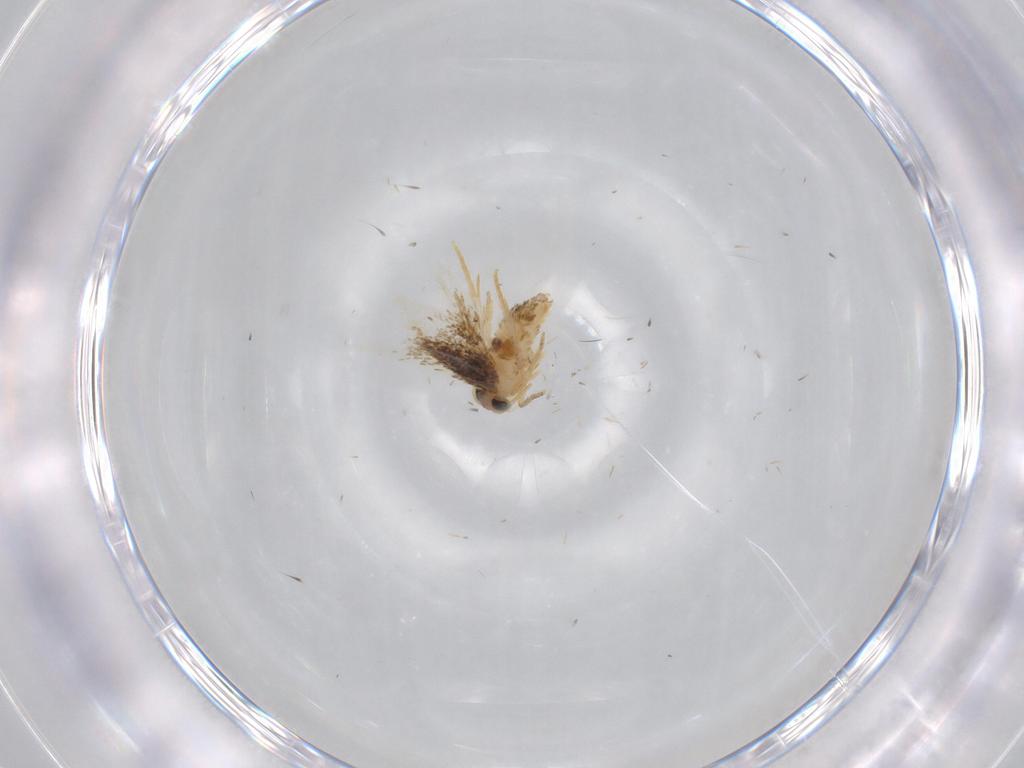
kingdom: Animalia
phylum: Arthropoda
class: Insecta
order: Lepidoptera
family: Nepticulidae
